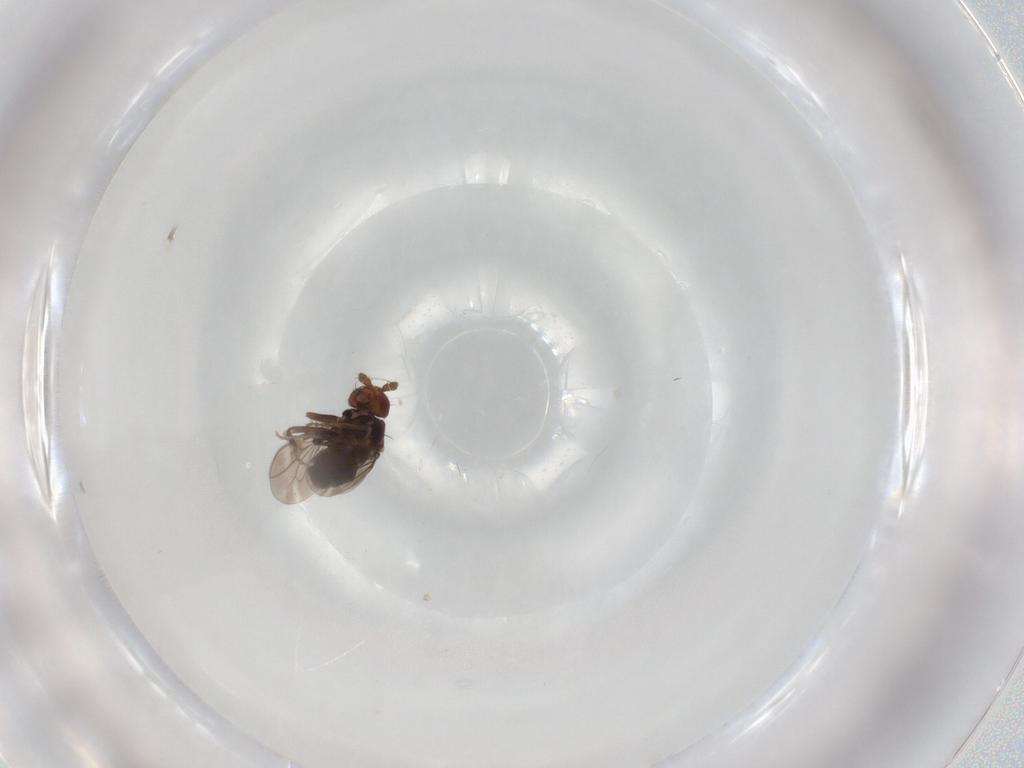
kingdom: Animalia
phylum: Arthropoda
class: Insecta
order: Diptera
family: Sphaeroceridae
